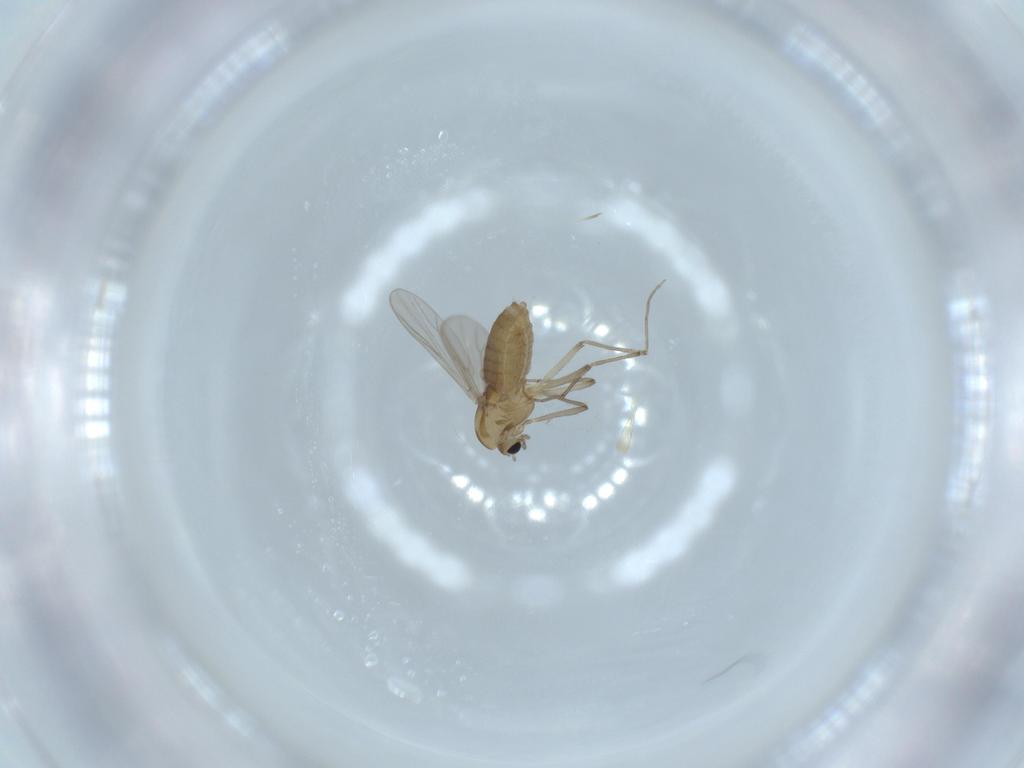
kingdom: Animalia
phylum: Arthropoda
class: Insecta
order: Diptera
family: Chironomidae
